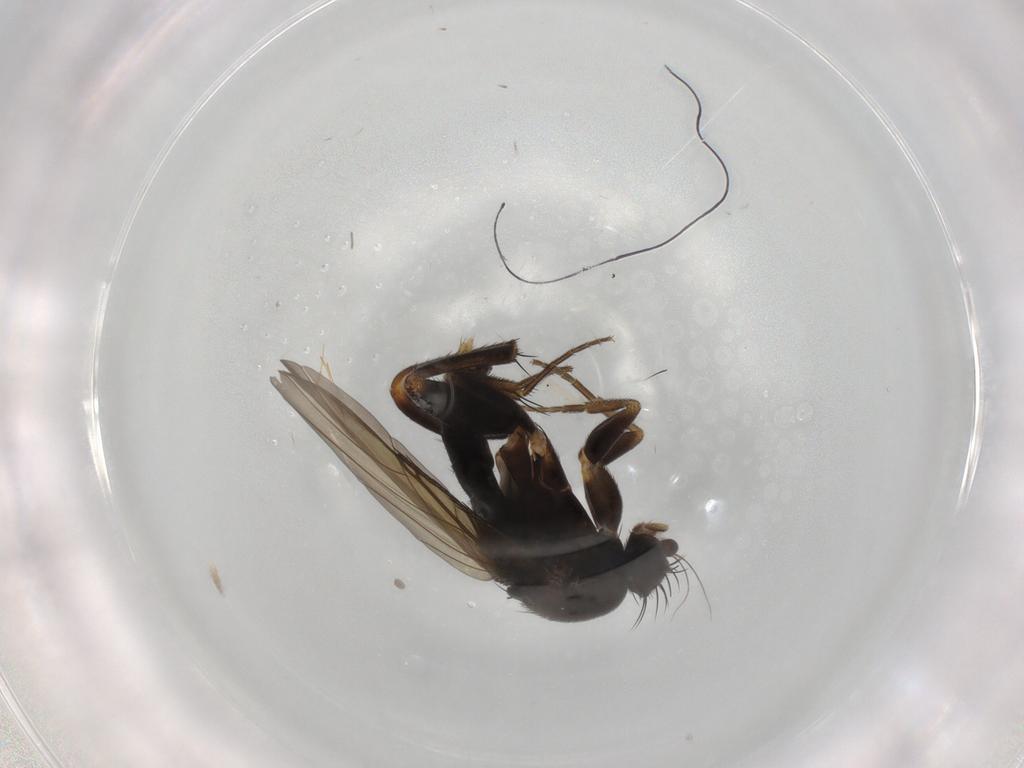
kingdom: Animalia
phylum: Arthropoda
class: Insecta
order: Diptera
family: Phoridae
